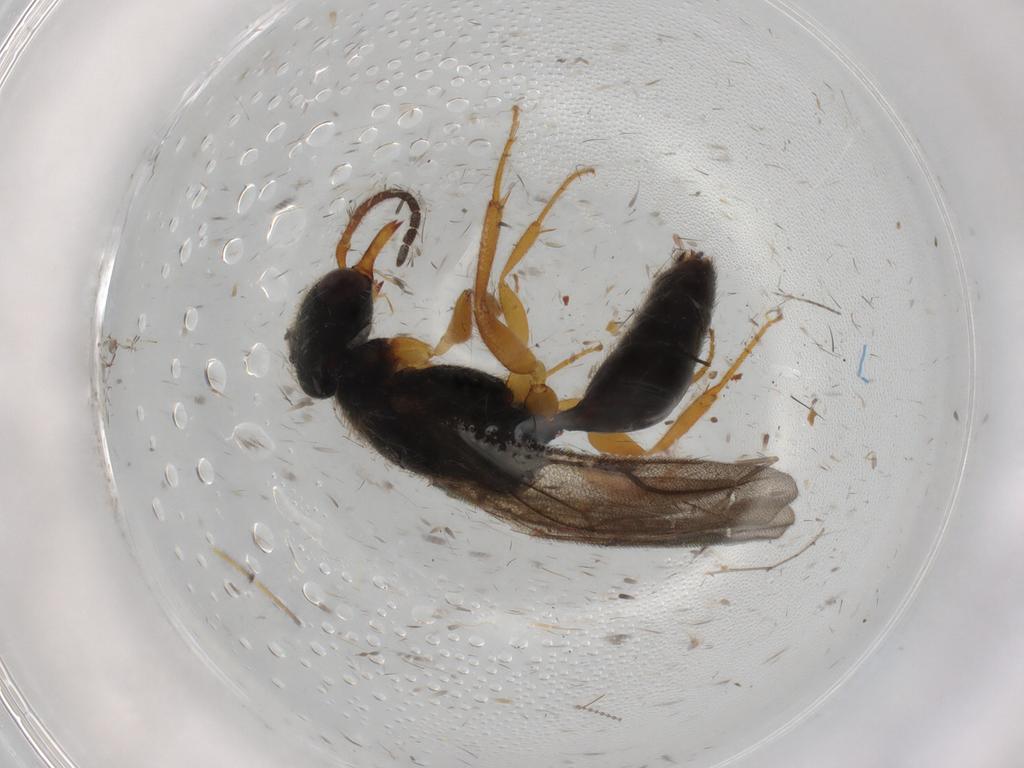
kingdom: Animalia
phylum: Arthropoda
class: Insecta
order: Hymenoptera
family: Bethylidae
